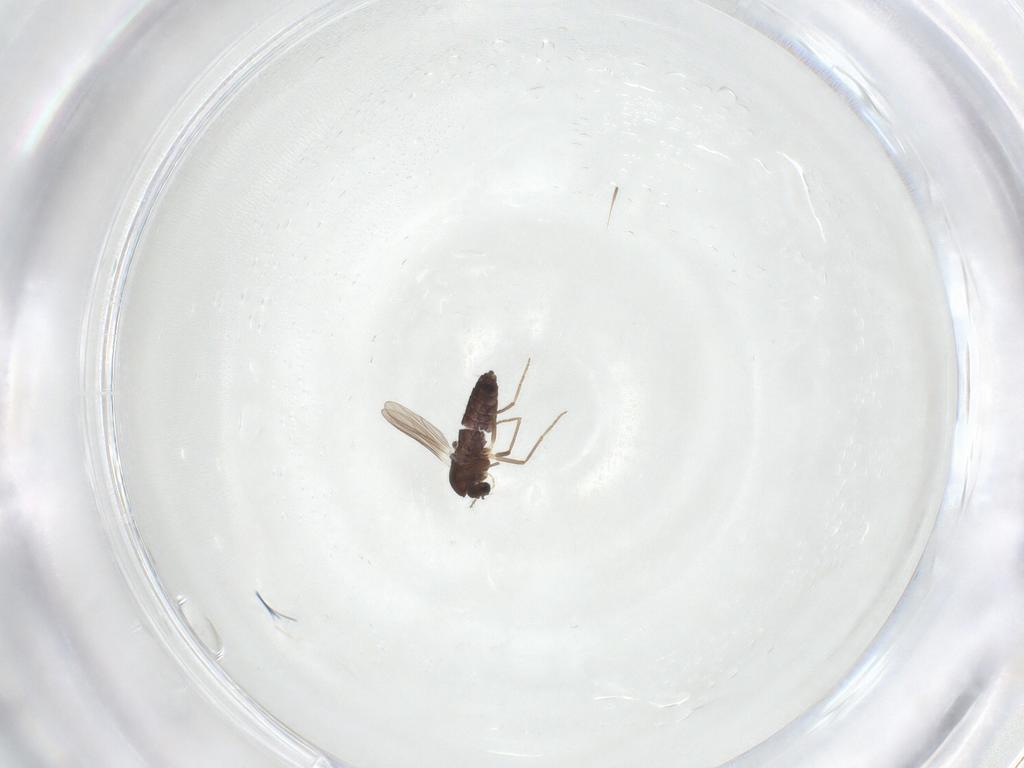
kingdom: Animalia
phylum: Arthropoda
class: Insecta
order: Diptera
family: Chironomidae
